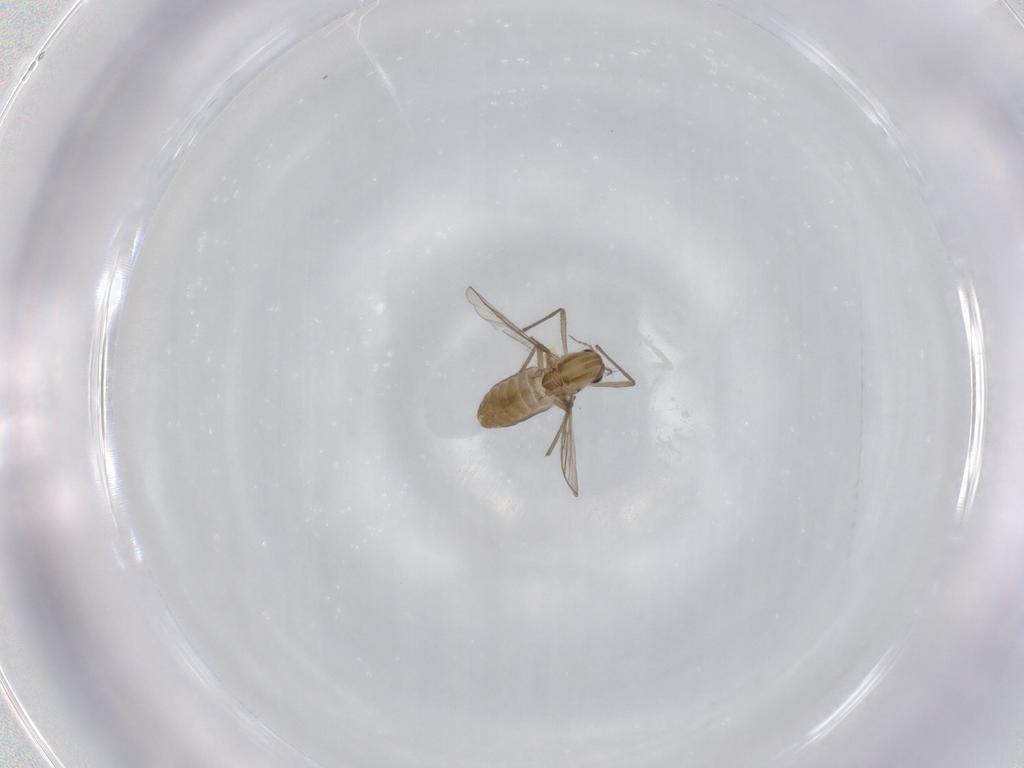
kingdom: Animalia
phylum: Arthropoda
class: Insecta
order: Diptera
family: Chironomidae
